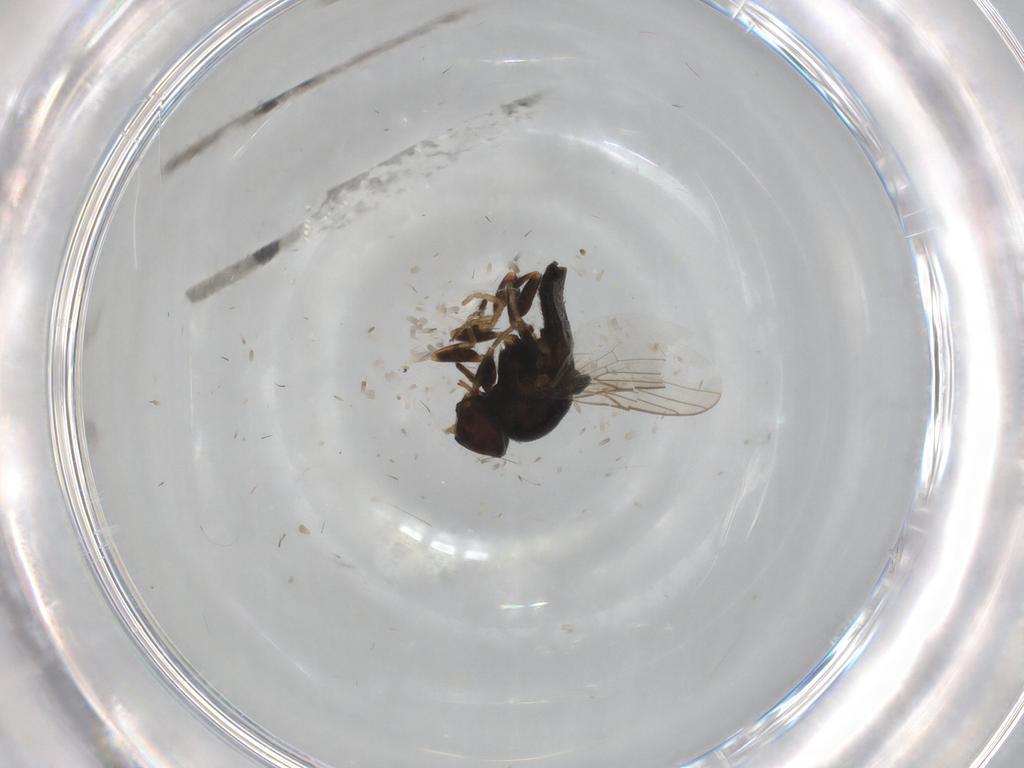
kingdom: Animalia
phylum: Arthropoda
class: Insecta
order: Diptera
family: Chloropidae
